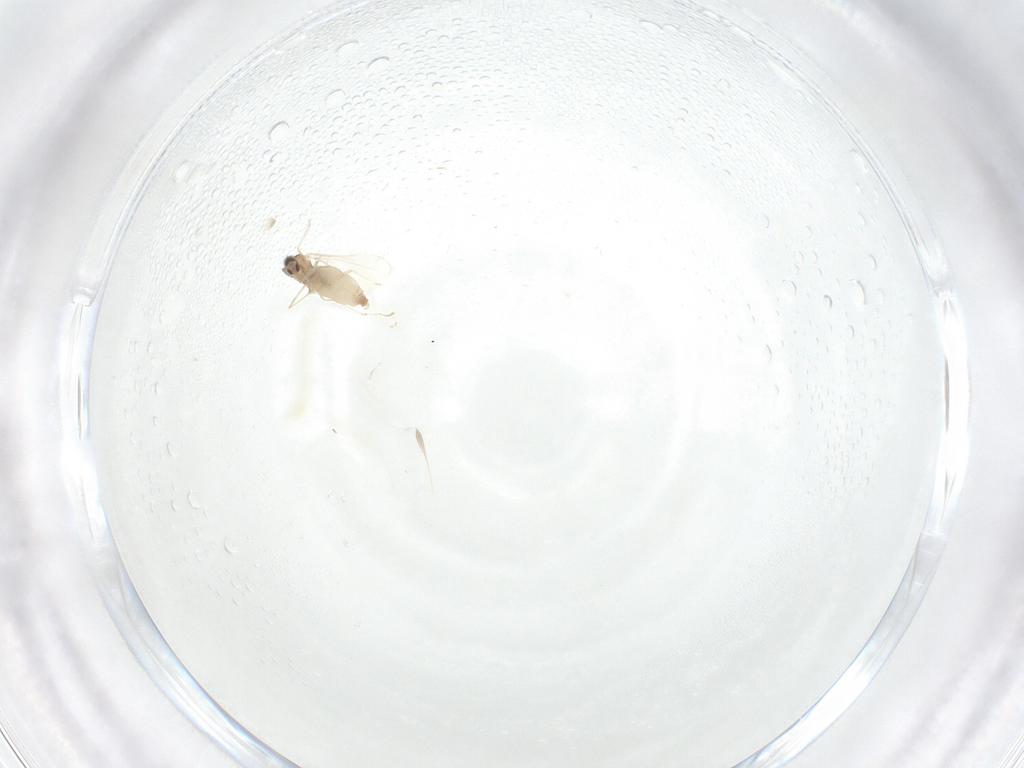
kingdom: Animalia
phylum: Arthropoda
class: Insecta
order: Diptera
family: Cecidomyiidae
